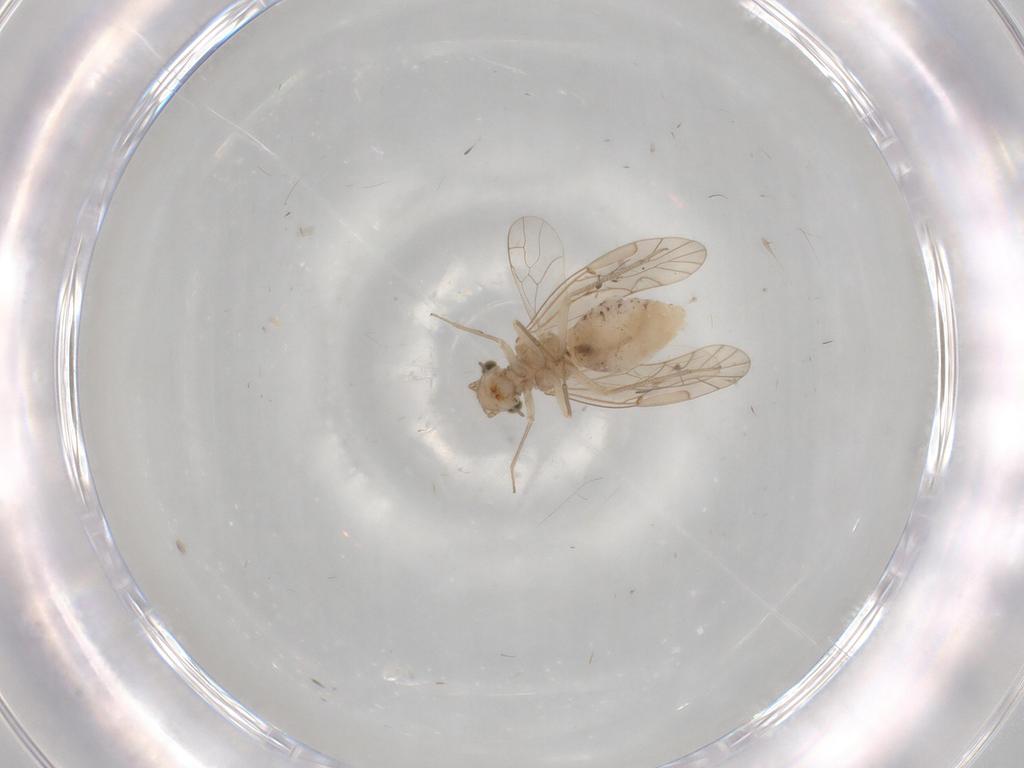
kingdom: Animalia
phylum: Arthropoda
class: Insecta
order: Psocodea
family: Lachesillidae
